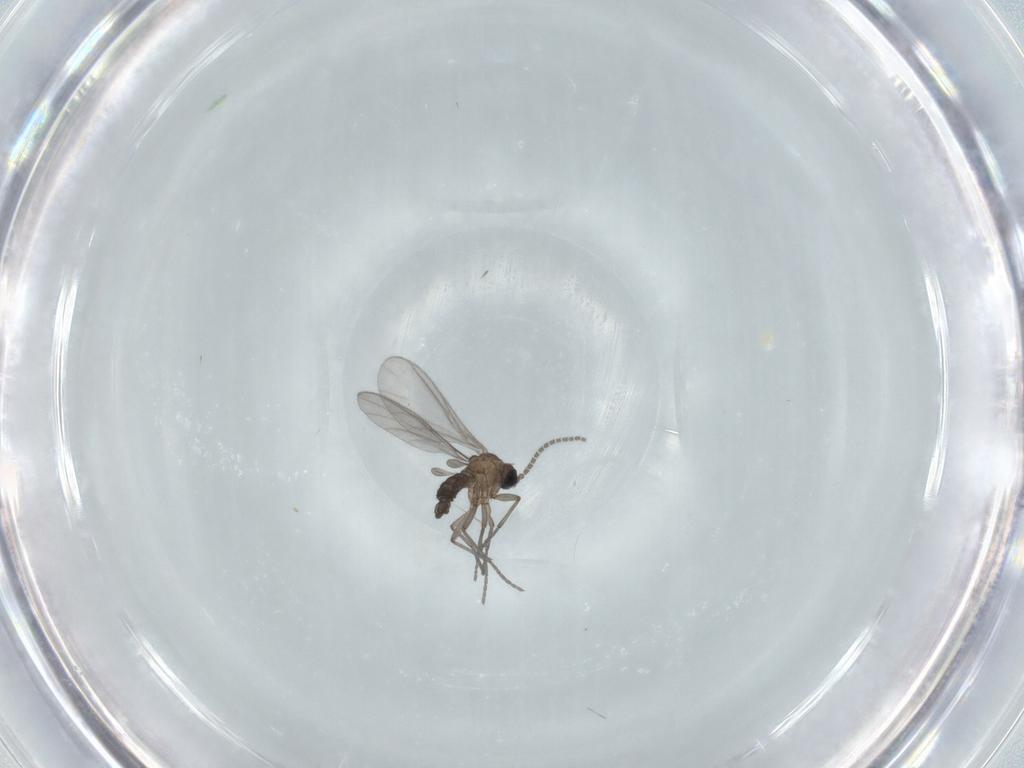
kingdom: Animalia
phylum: Arthropoda
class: Insecta
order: Diptera
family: Sciaridae
